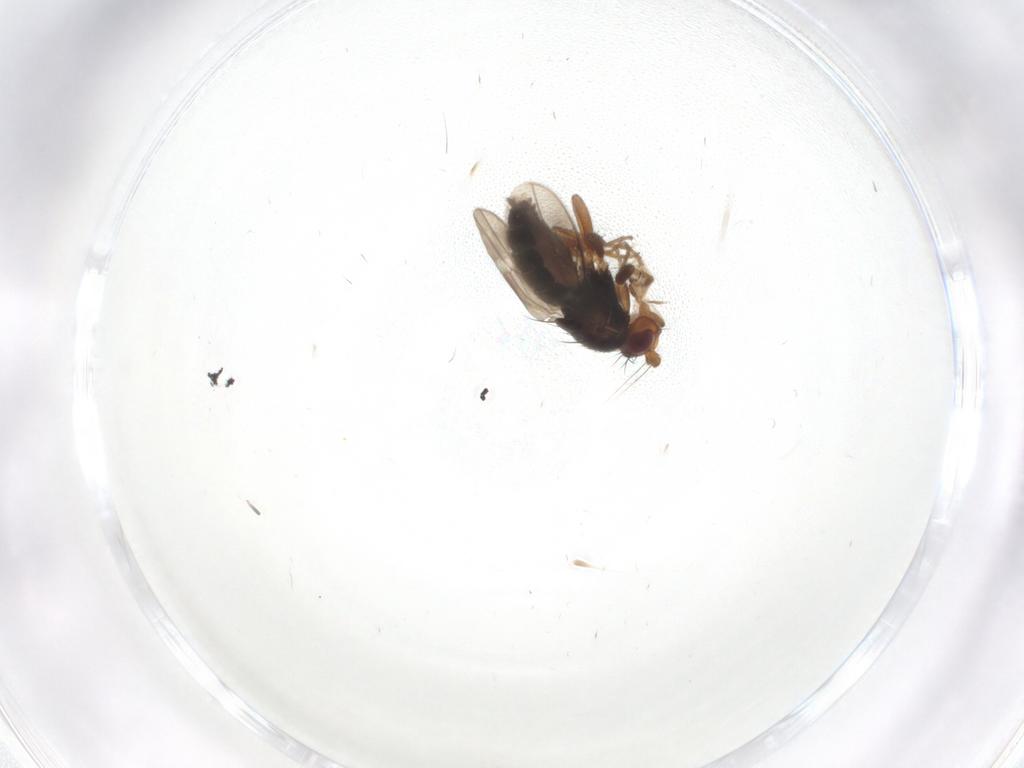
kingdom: Animalia
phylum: Arthropoda
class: Insecta
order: Diptera
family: Sphaeroceridae
